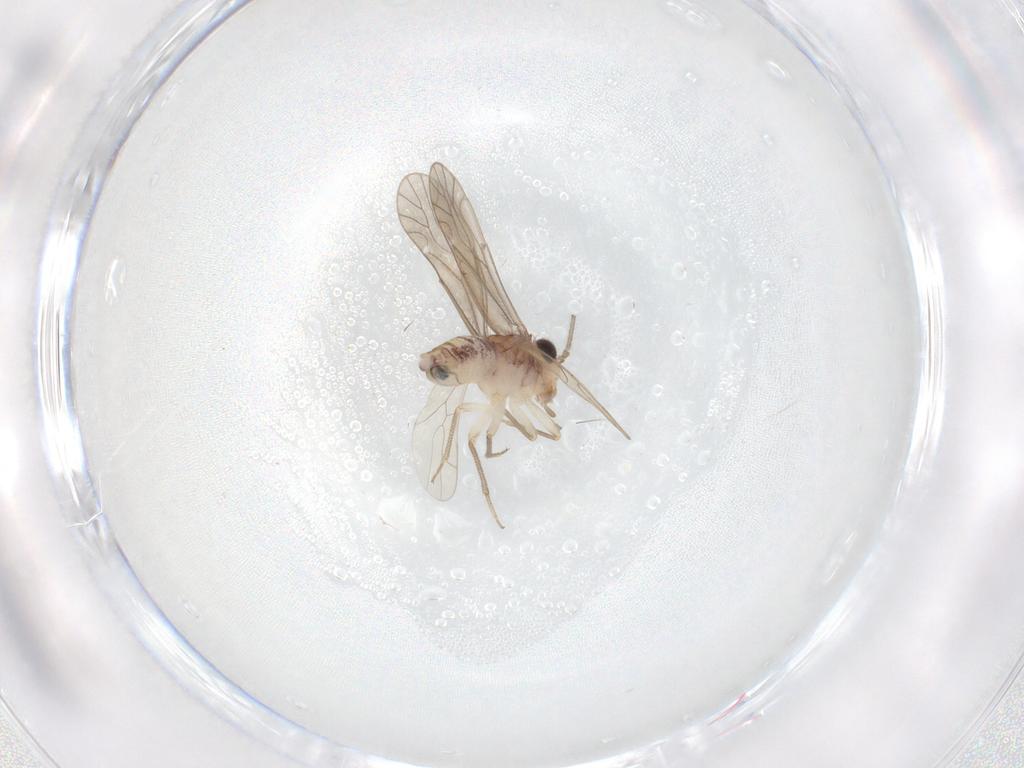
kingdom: Animalia
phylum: Arthropoda
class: Insecta
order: Psocodea
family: Caeciliusidae
